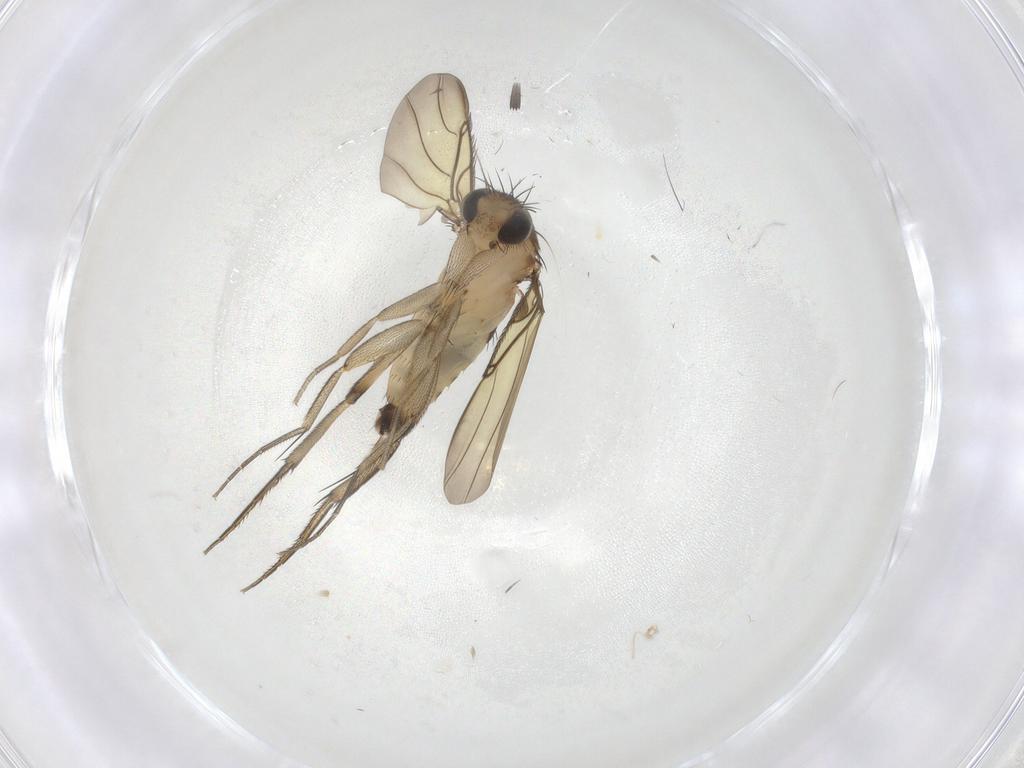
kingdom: Animalia
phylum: Arthropoda
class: Insecta
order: Diptera
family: Phoridae
